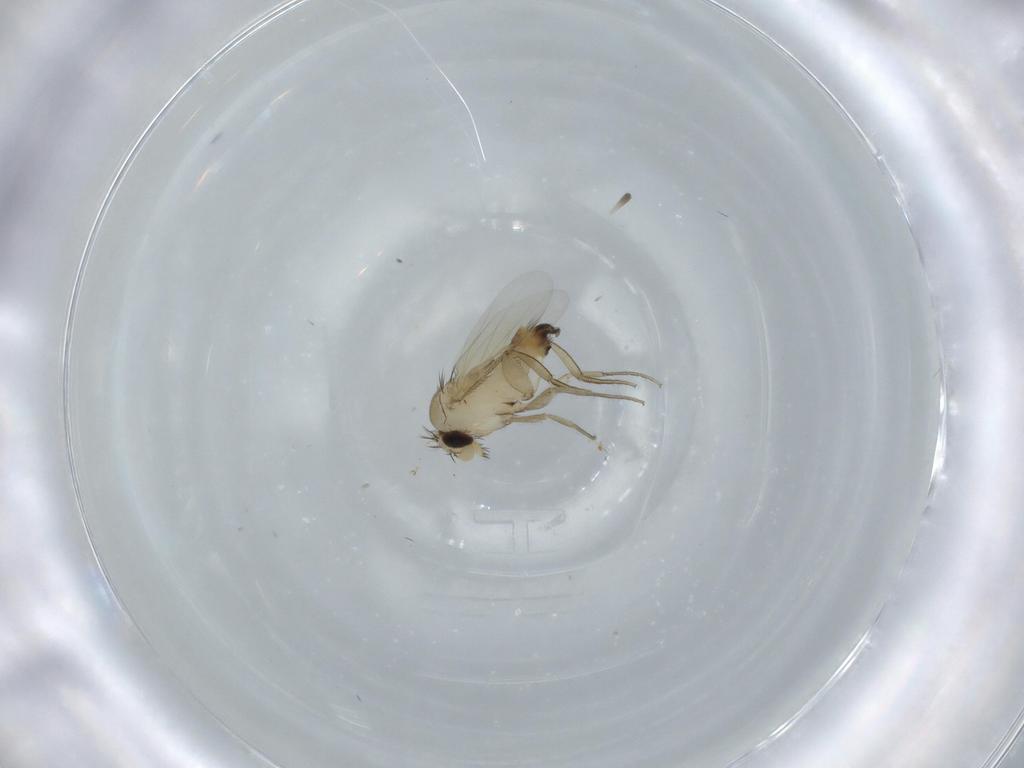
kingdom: Animalia
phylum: Arthropoda
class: Insecta
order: Diptera
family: Phoridae
